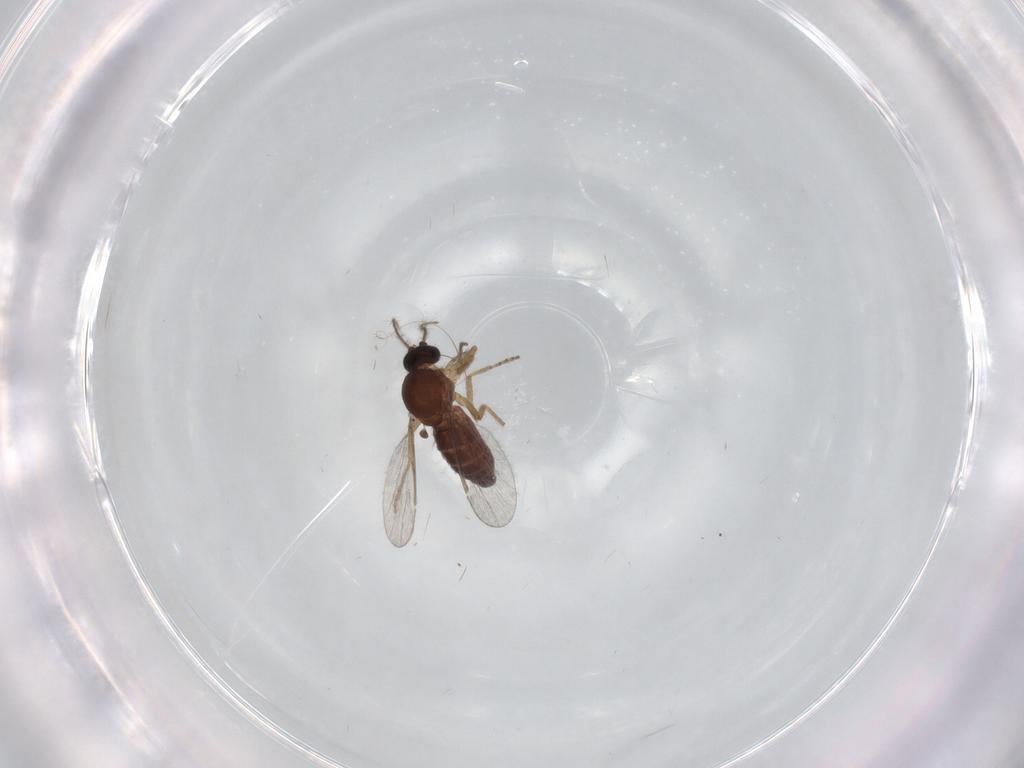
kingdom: Animalia
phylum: Arthropoda
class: Insecta
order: Diptera
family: Ceratopogonidae
